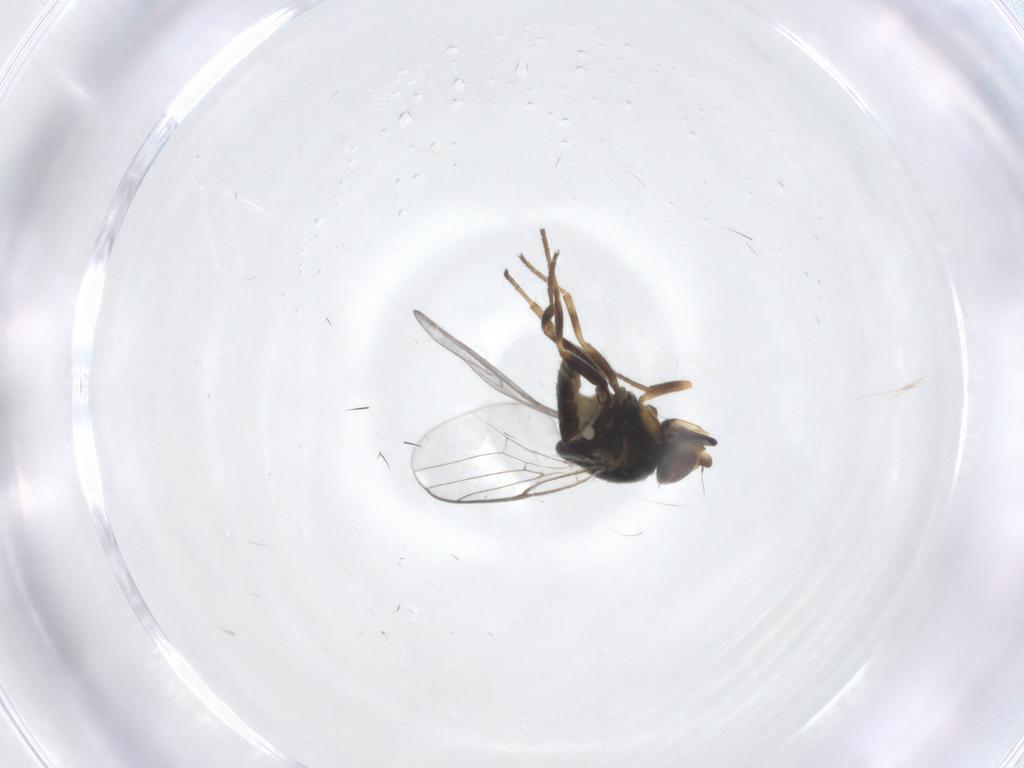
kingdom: Animalia
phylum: Arthropoda
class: Insecta
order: Diptera
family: Chloropidae
